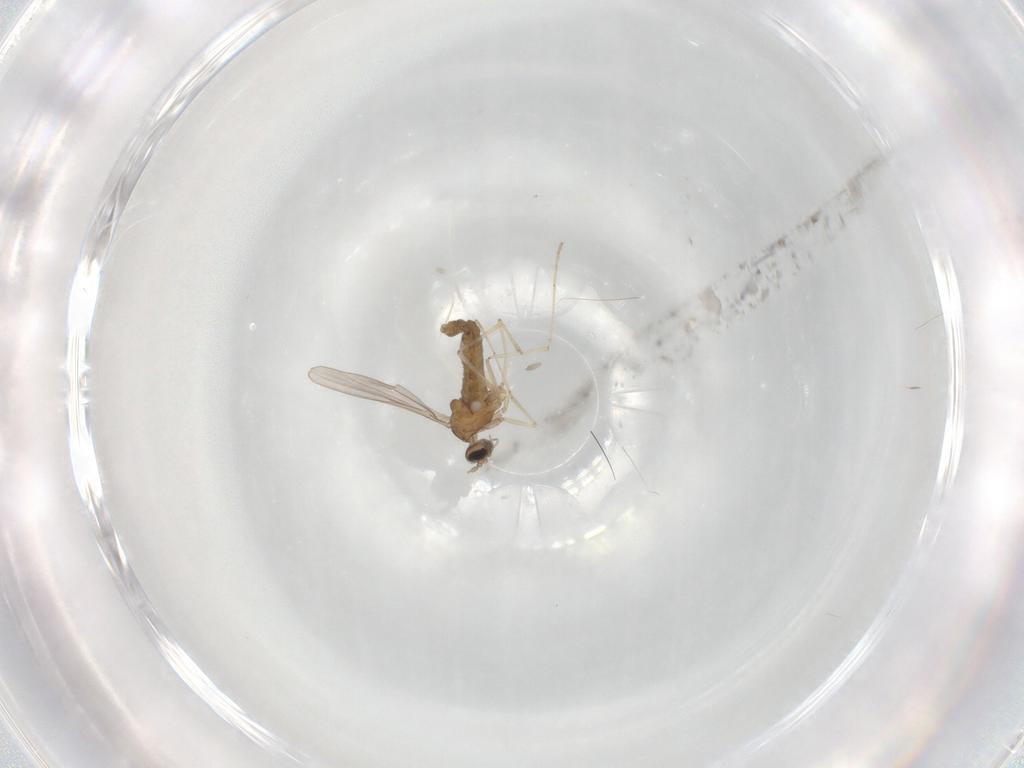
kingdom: Animalia
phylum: Arthropoda
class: Insecta
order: Diptera
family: Cecidomyiidae
